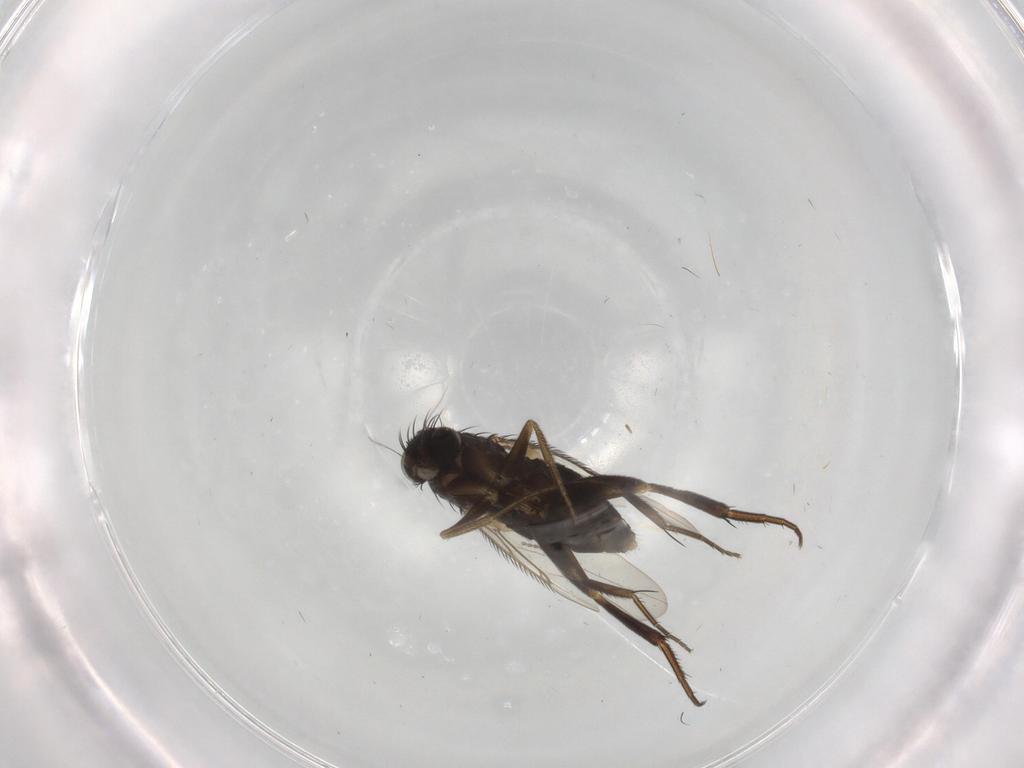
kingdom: Animalia
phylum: Arthropoda
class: Insecta
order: Diptera
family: Phoridae
